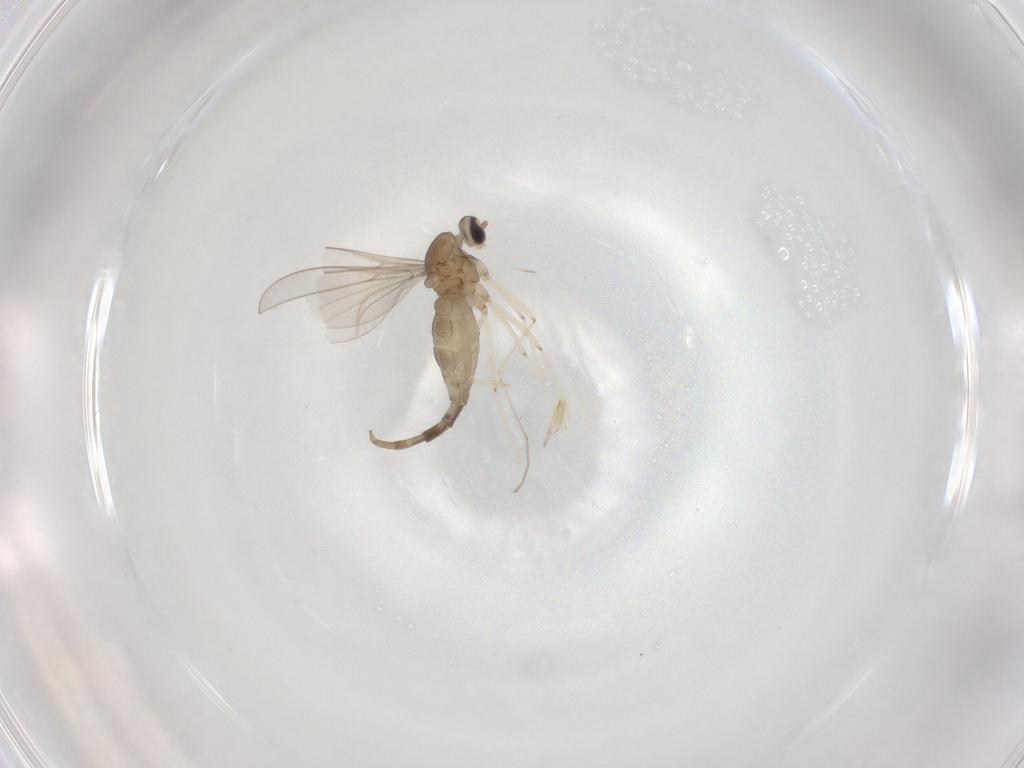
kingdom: Animalia
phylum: Arthropoda
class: Insecta
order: Diptera
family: Cecidomyiidae
